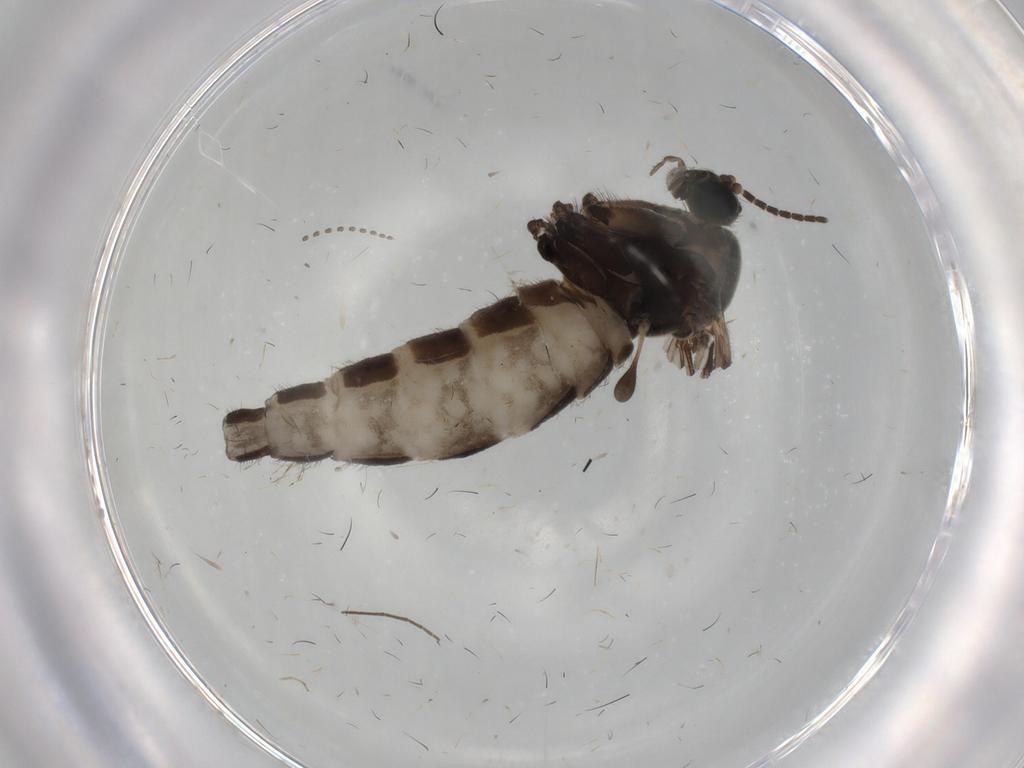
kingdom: Animalia
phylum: Arthropoda
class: Insecta
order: Diptera
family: Sciaridae
